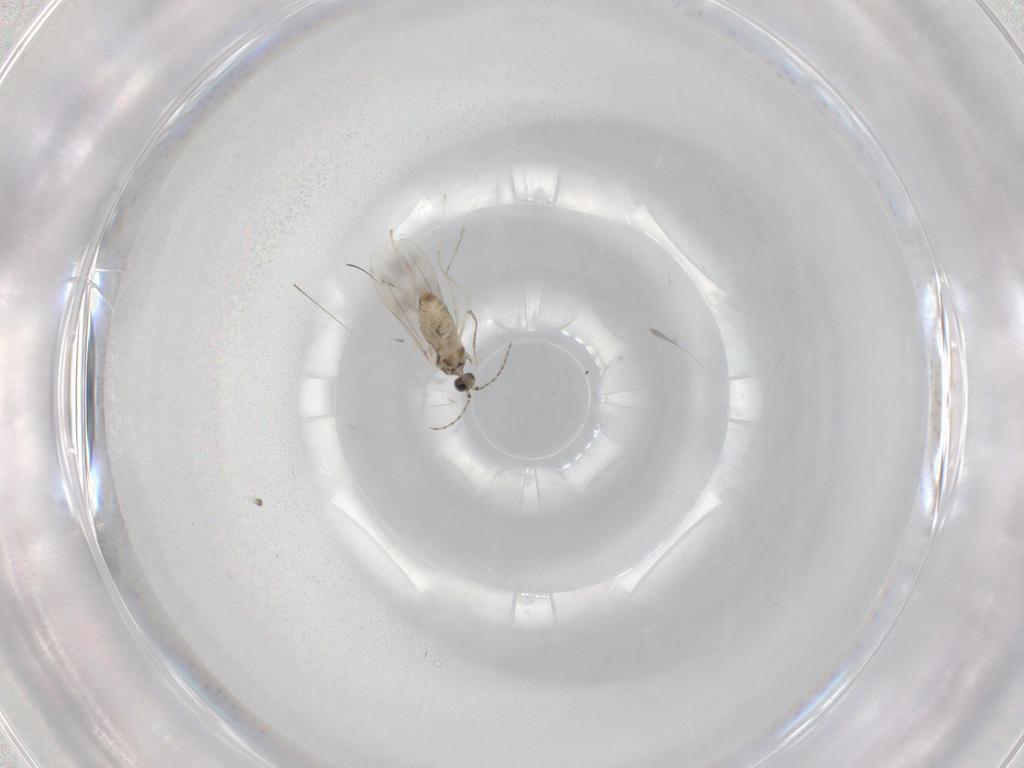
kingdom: Animalia
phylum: Arthropoda
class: Insecta
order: Diptera
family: Cecidomyiidae
